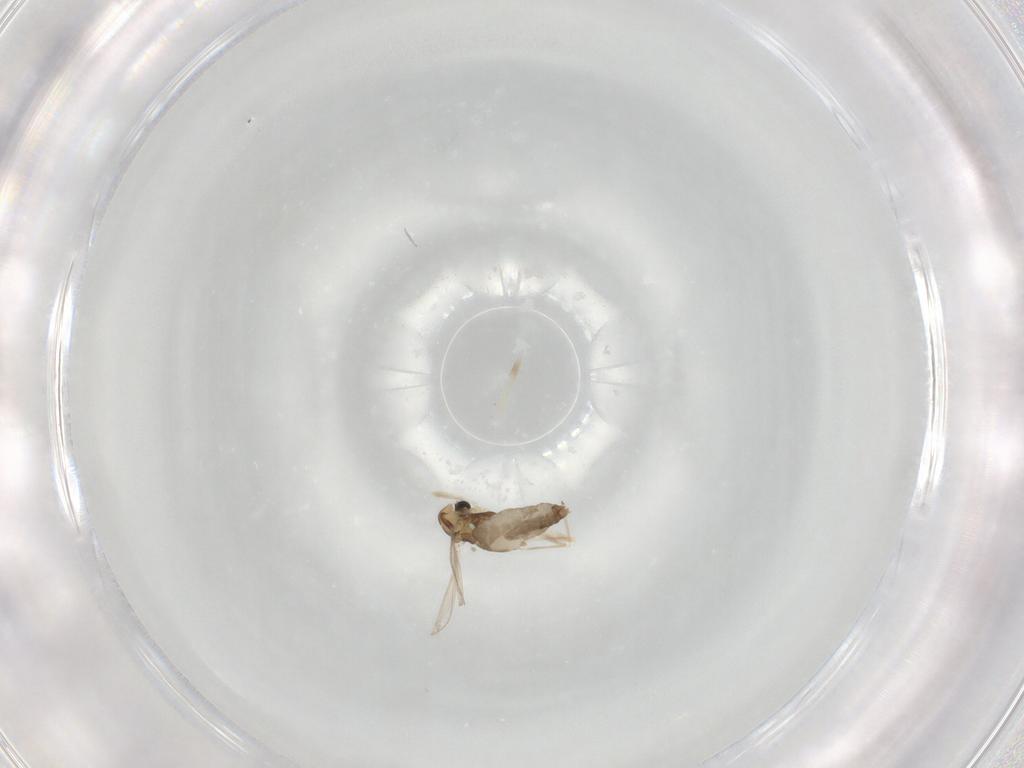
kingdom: Animalia
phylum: Arthropoda
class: Insecta
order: Diptera
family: Chironomidae
